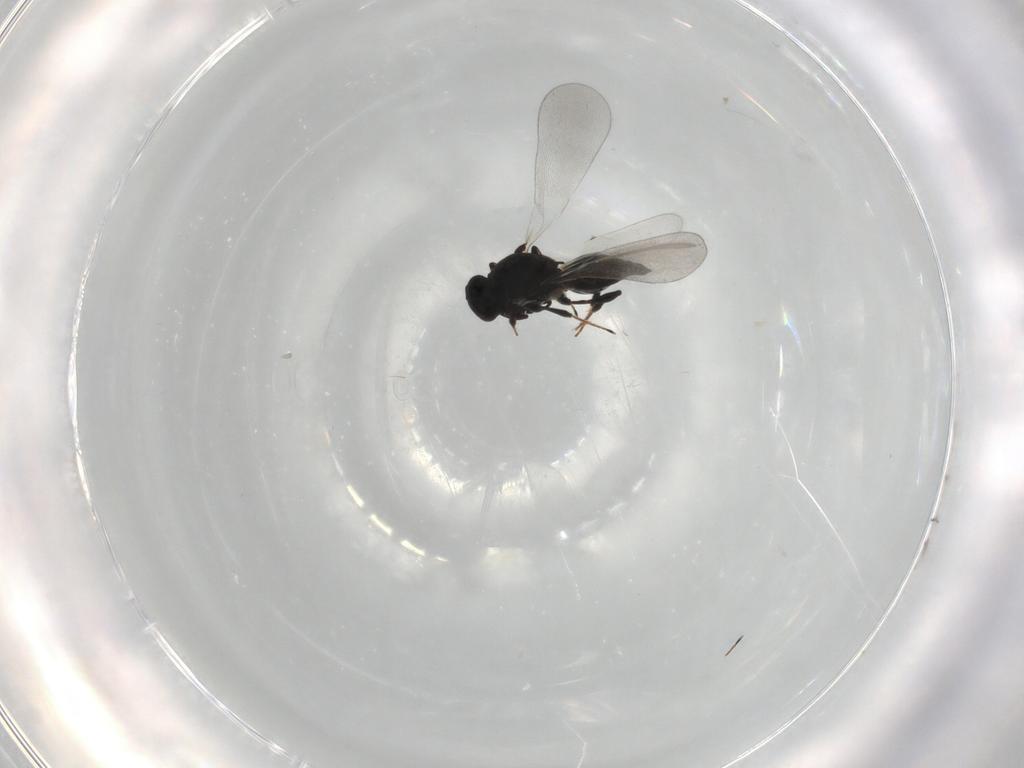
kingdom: Animalia
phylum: Arthropoda
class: Insecta
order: Hymenoptera
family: Platygastridae
